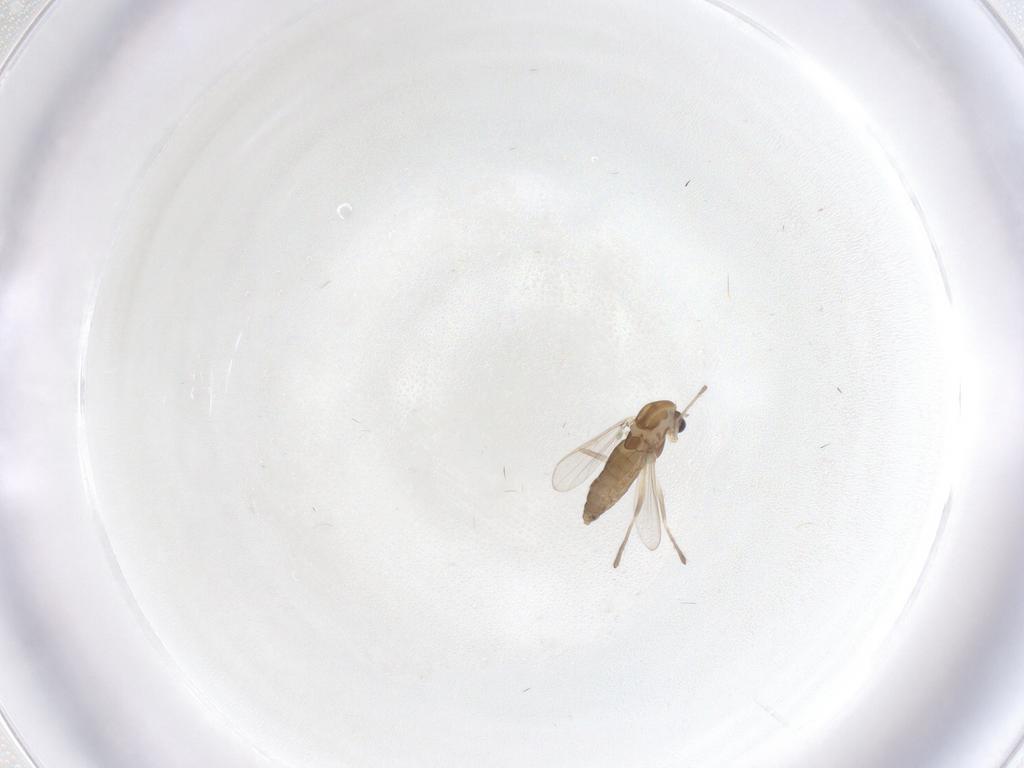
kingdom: Animalia
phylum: Arthropoda
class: Insecta
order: Diptera
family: Chironomidae
